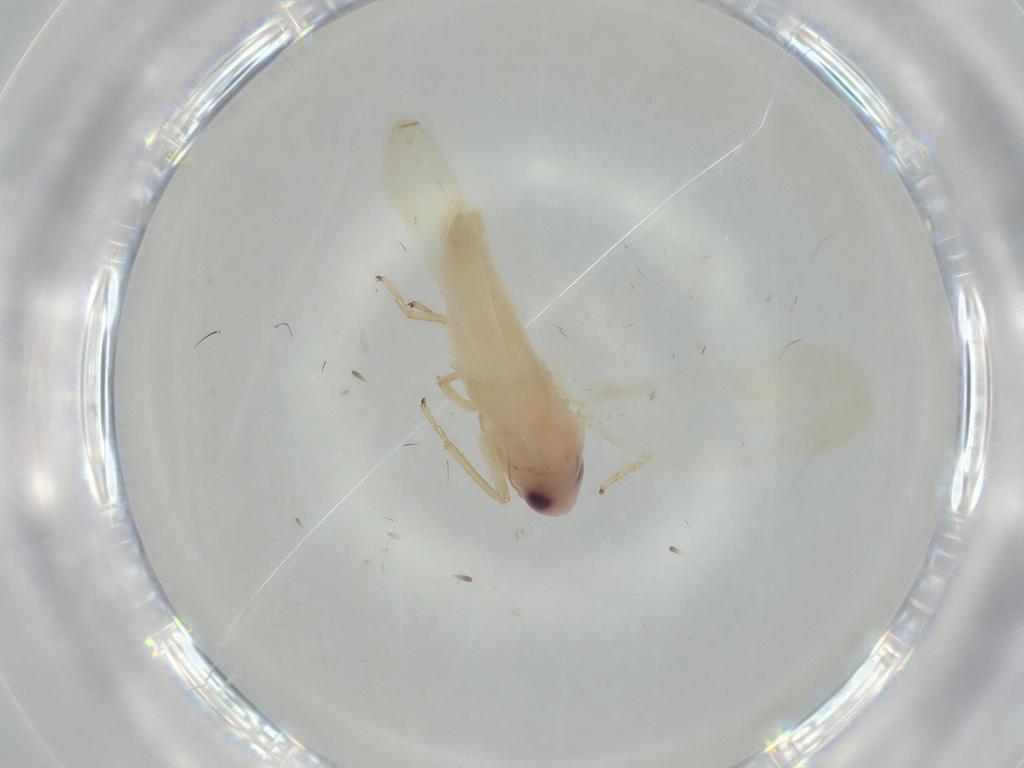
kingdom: Animalia
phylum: Arthropoda
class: Insecta
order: Hemiptera
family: Cicadellidae
